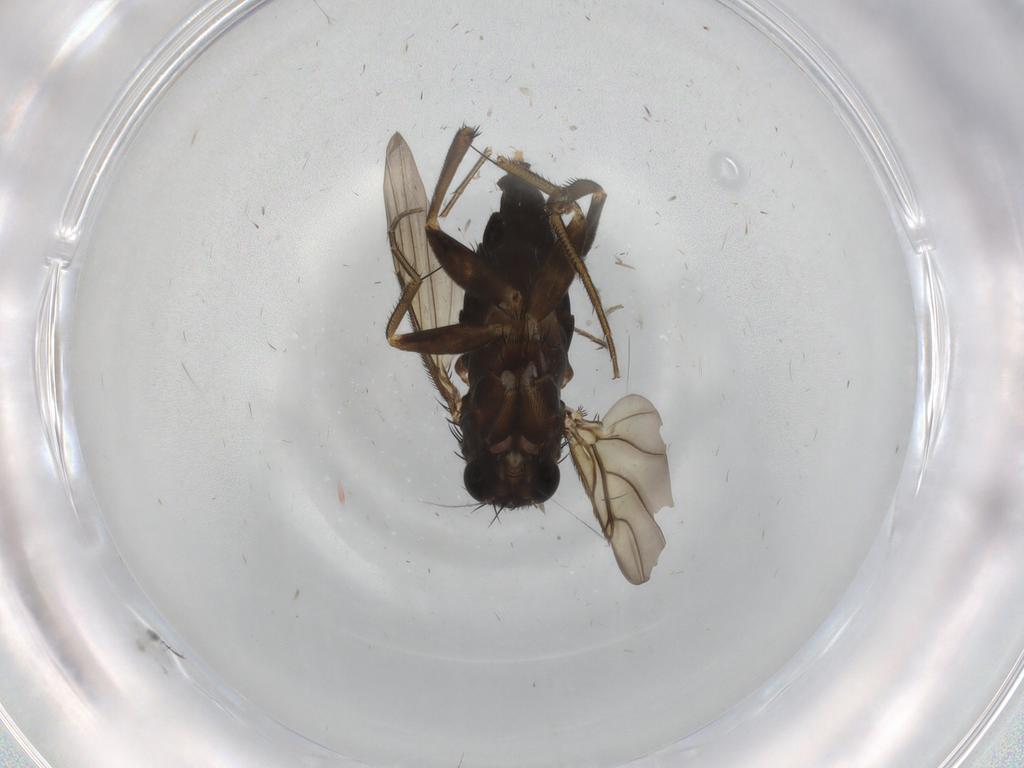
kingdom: Animalia
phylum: Arthropoda
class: Insecta
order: Diptera
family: Phoridae
